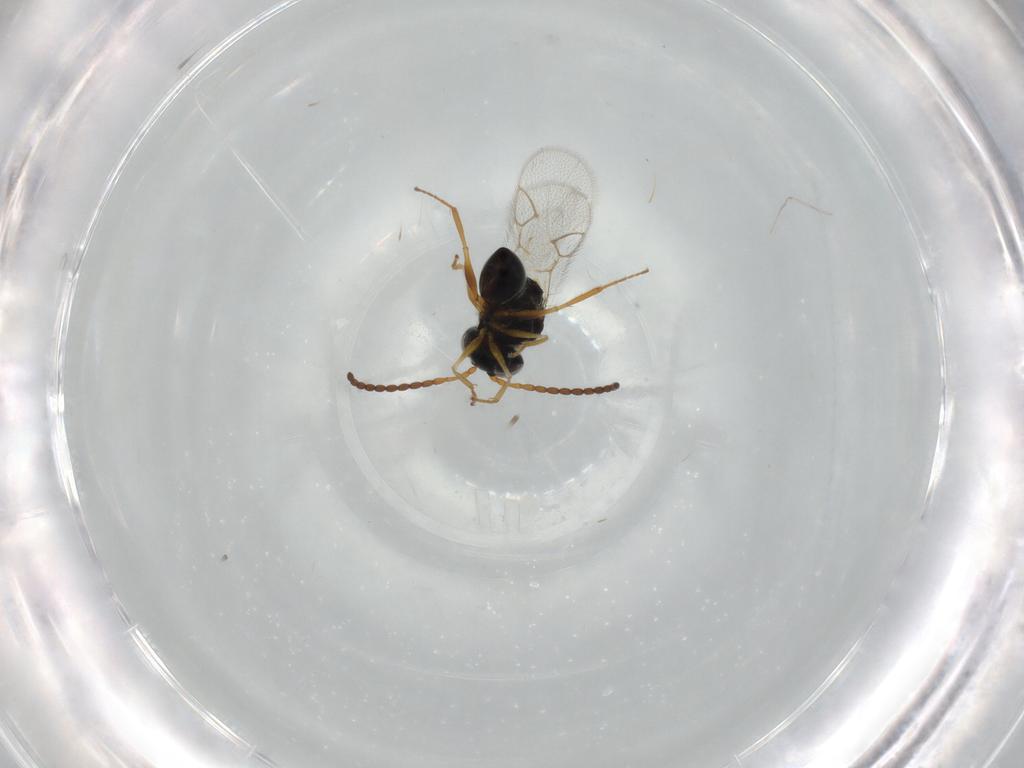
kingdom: Animalia
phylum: Arthropoda
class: Insecta
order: Hymenoptera
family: Figitidae
